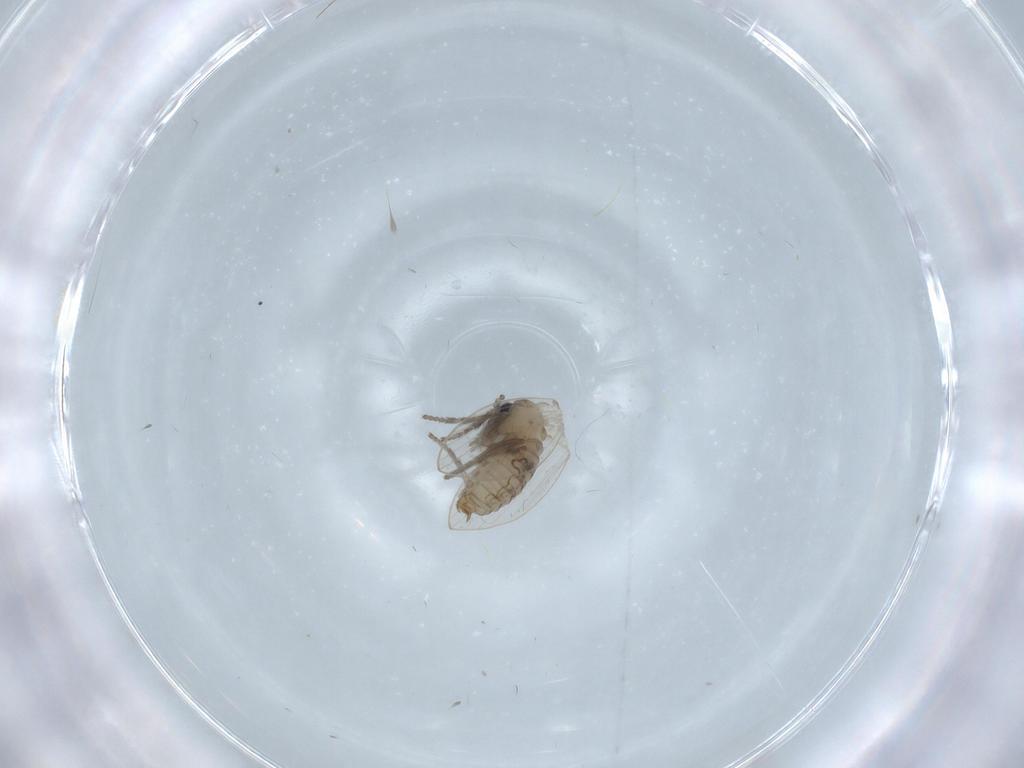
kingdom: Animalia
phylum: Arthropoda
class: Insecta
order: Diptera
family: Psychodidae
